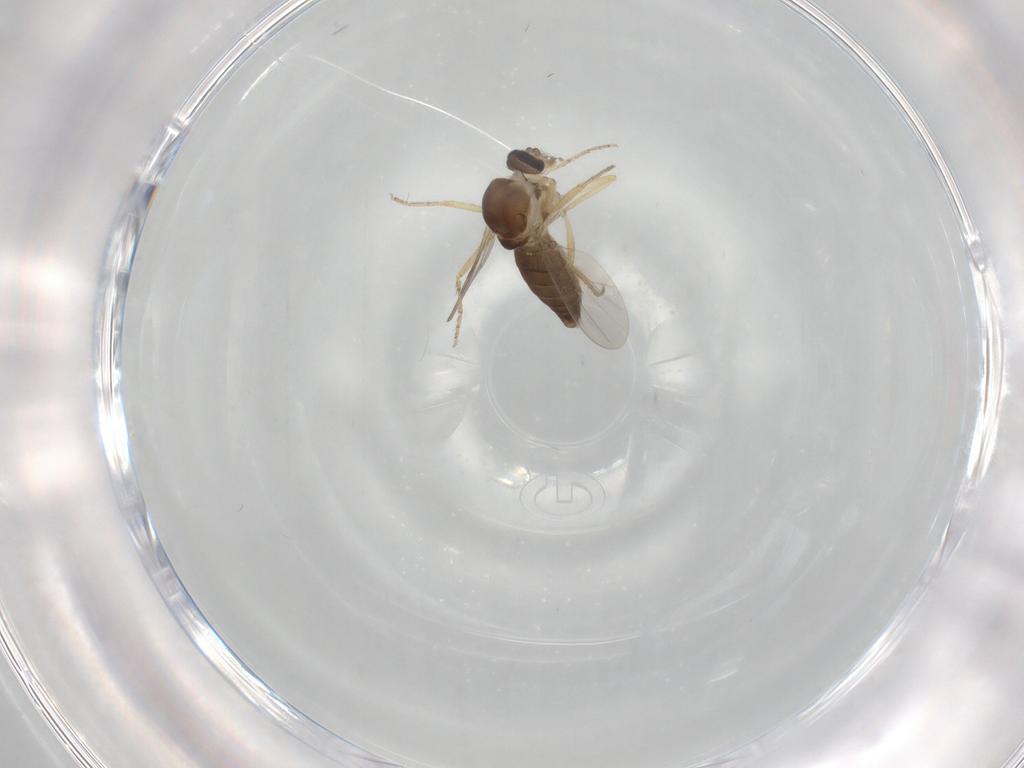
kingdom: Animalia
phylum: Arthropoda
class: Insecta
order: Diptera
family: Ceratopogonidae
